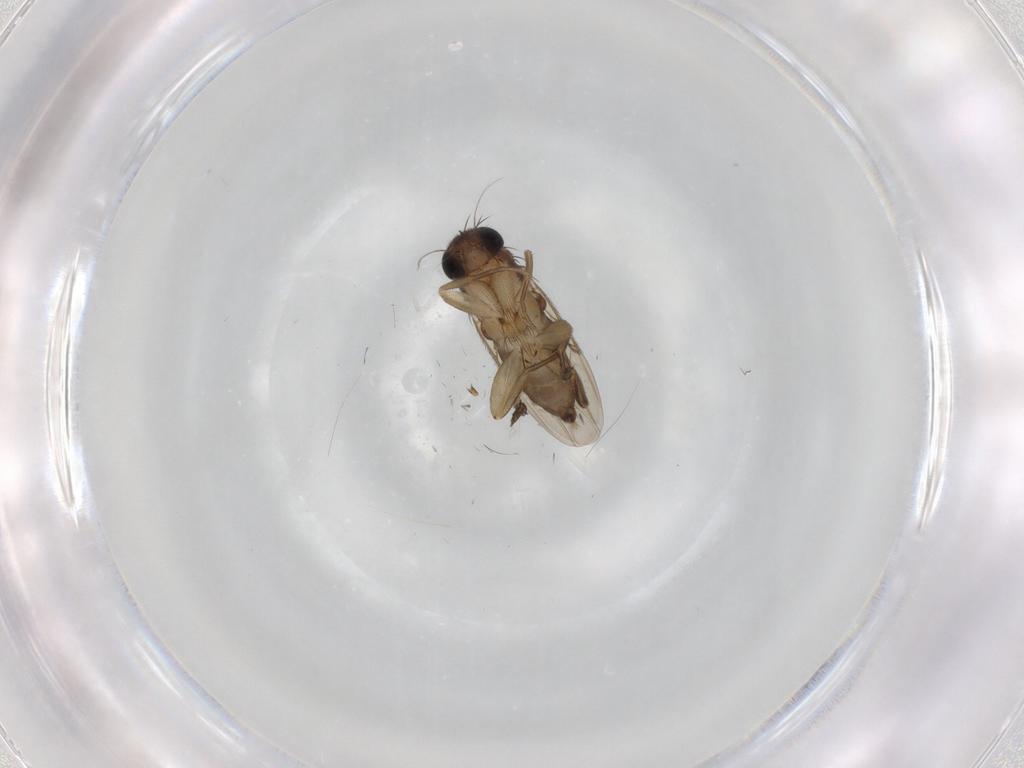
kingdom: Animalia
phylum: Arthropoda
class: Insecta
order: Diptera
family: Phoridae
